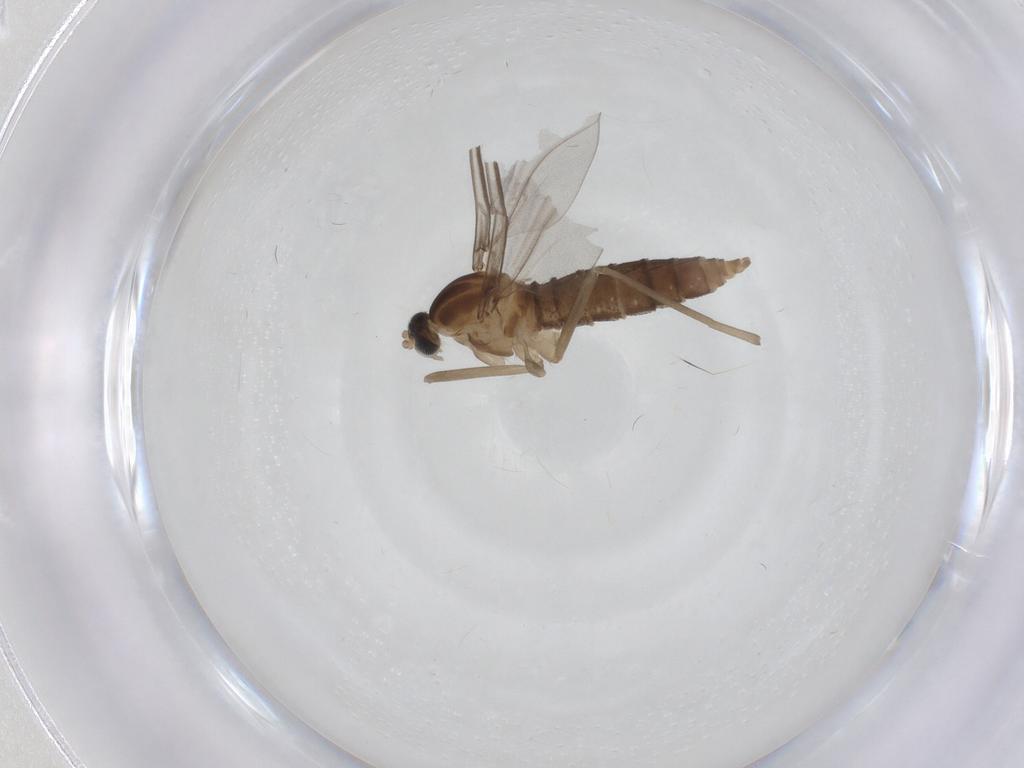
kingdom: Animalia
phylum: Arthropoda
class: Insecta
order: Diptera
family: Cecidomyiidae
